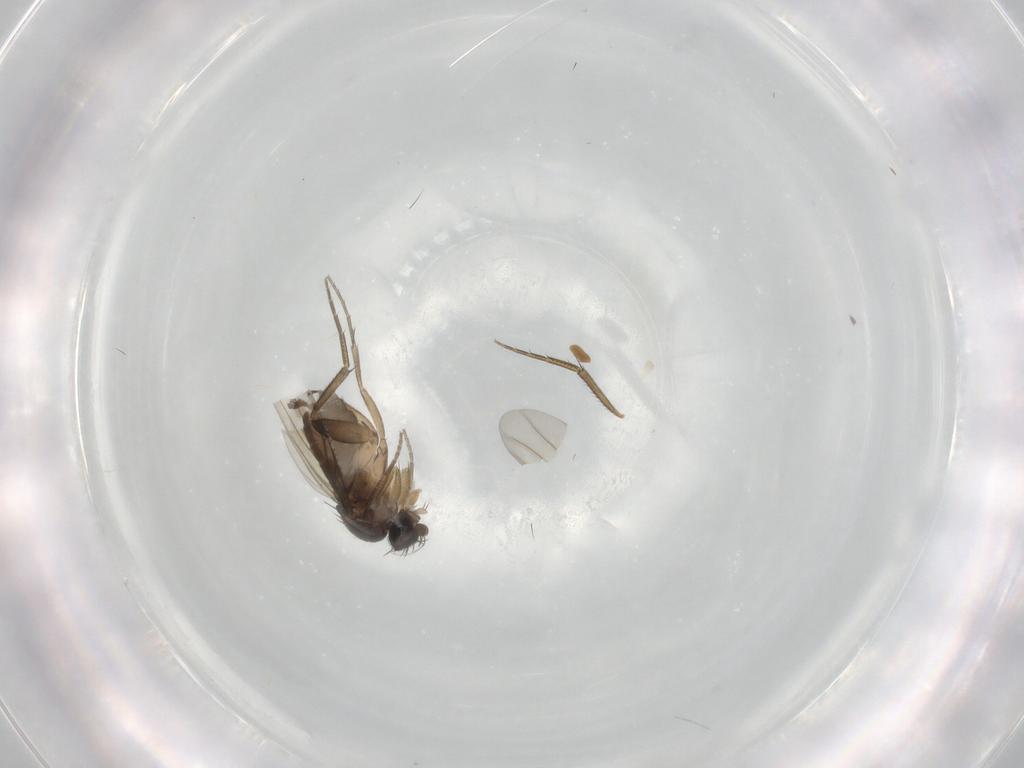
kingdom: Animalia
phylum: Arthropoda
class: Insecta
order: Diptera
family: Phoridae
